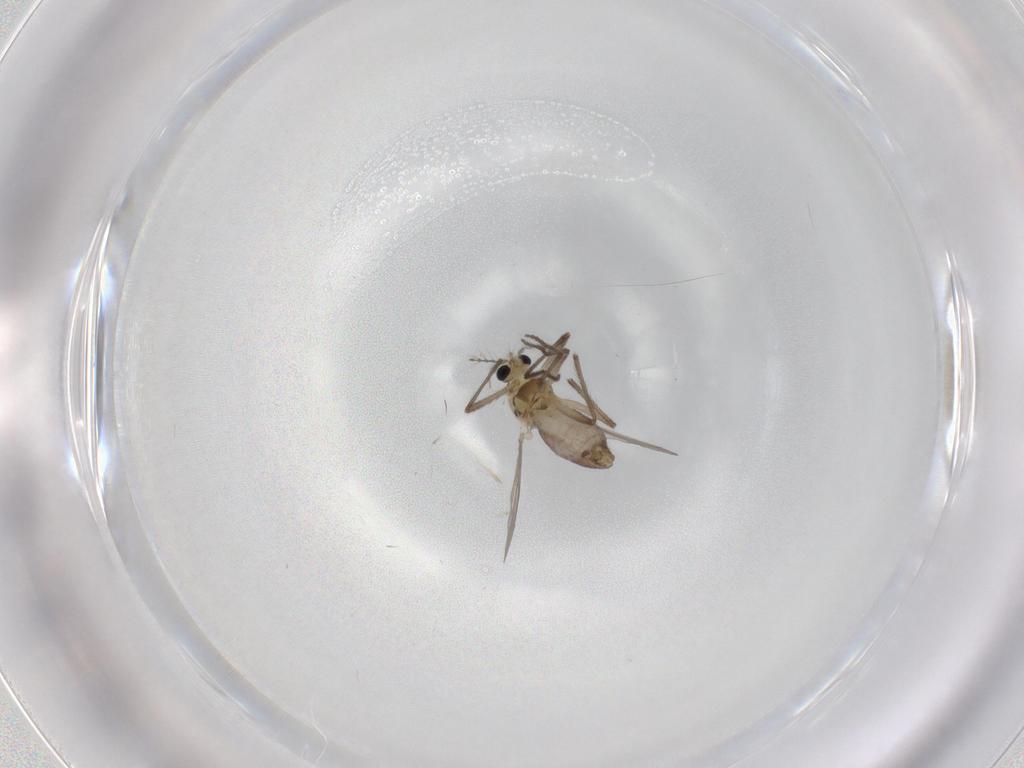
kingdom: Animalia
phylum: Arthropoda
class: Insecta
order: Diptera
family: Chironomidae
